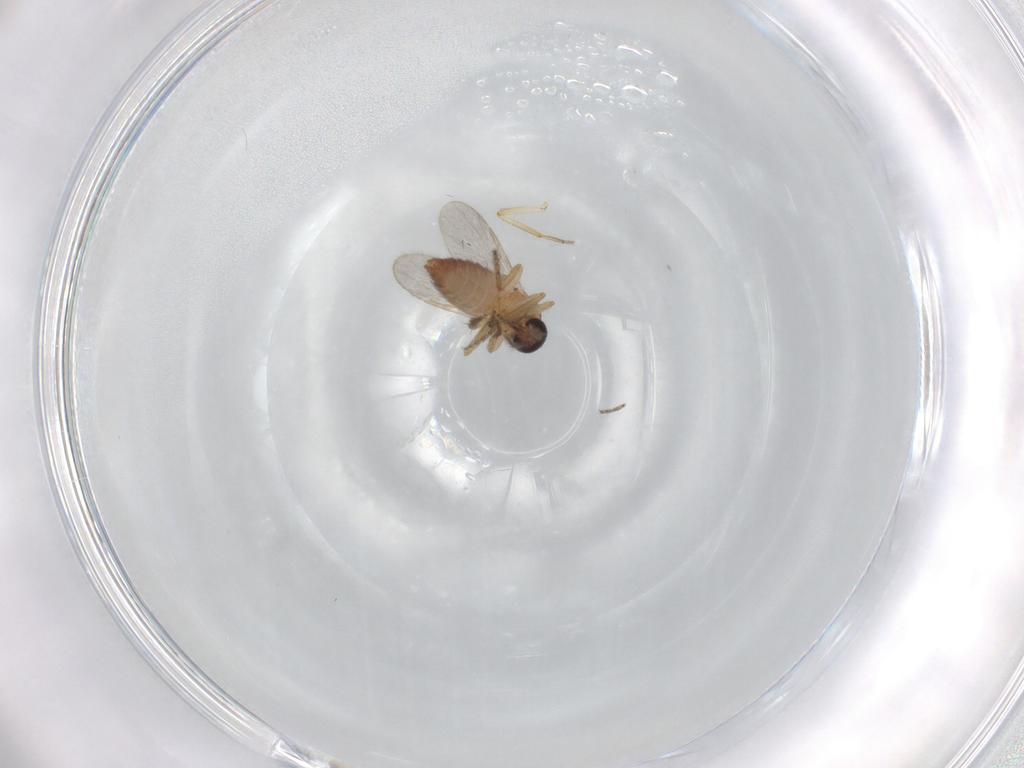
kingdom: Animalia
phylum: Arthropoda
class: Insecta
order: Diptera
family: Ceratopogonidae
